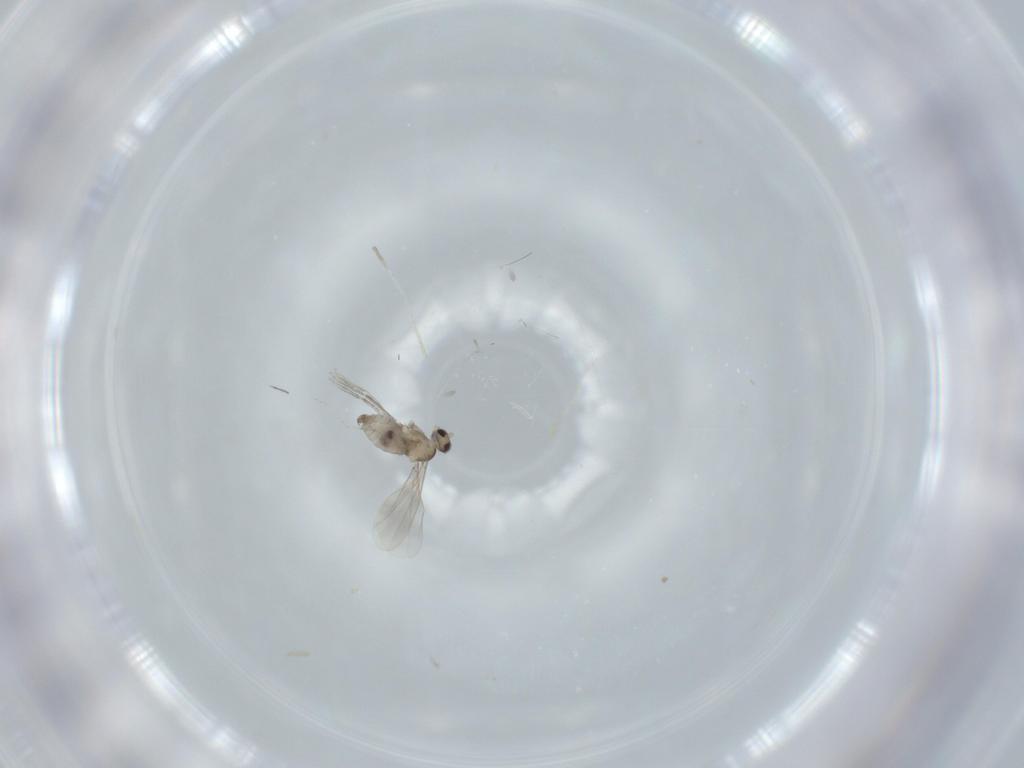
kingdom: Animalia
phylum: Arthropoda
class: Insecta
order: Diptera
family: Cecidomyiidae
